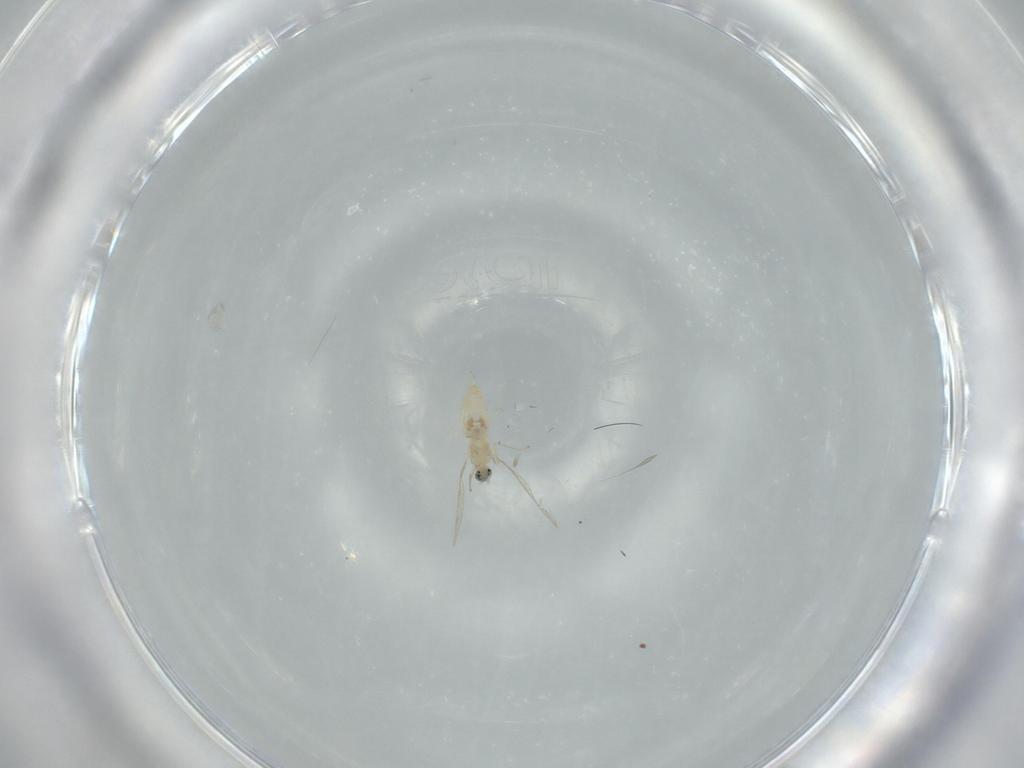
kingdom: Animalia
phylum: Arthropoda
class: Insecta
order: Diptera
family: Cecidomyiidae
